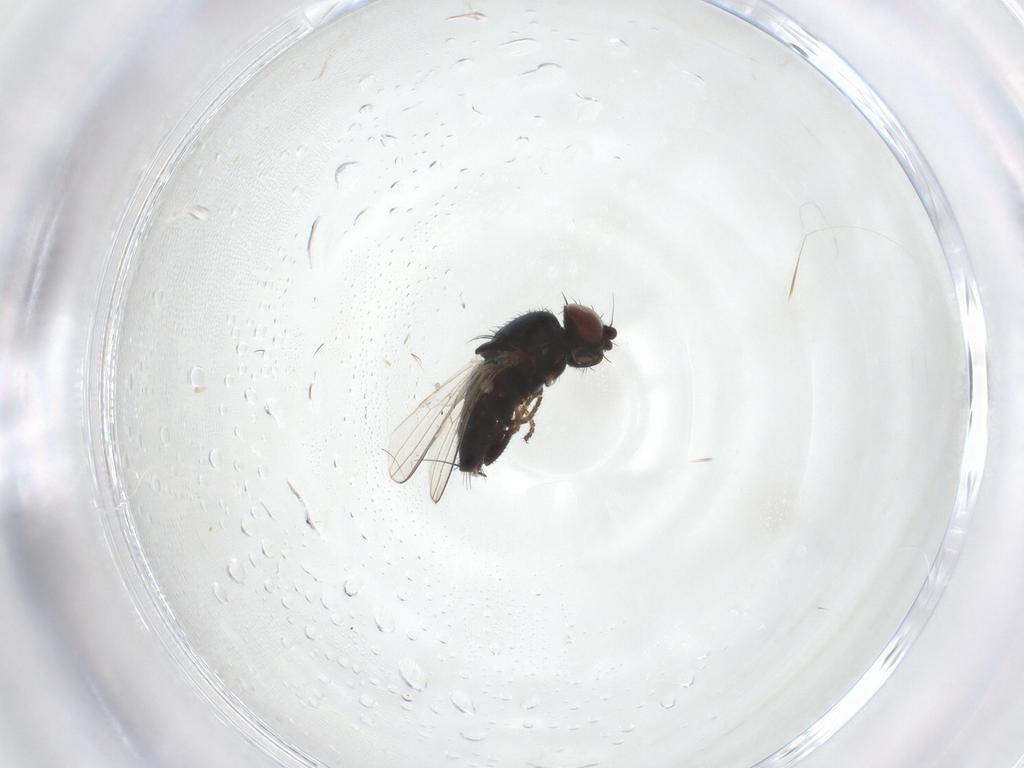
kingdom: Animalia
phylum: Arthropoda
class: Insecta
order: Diptera
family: Milichiidae
